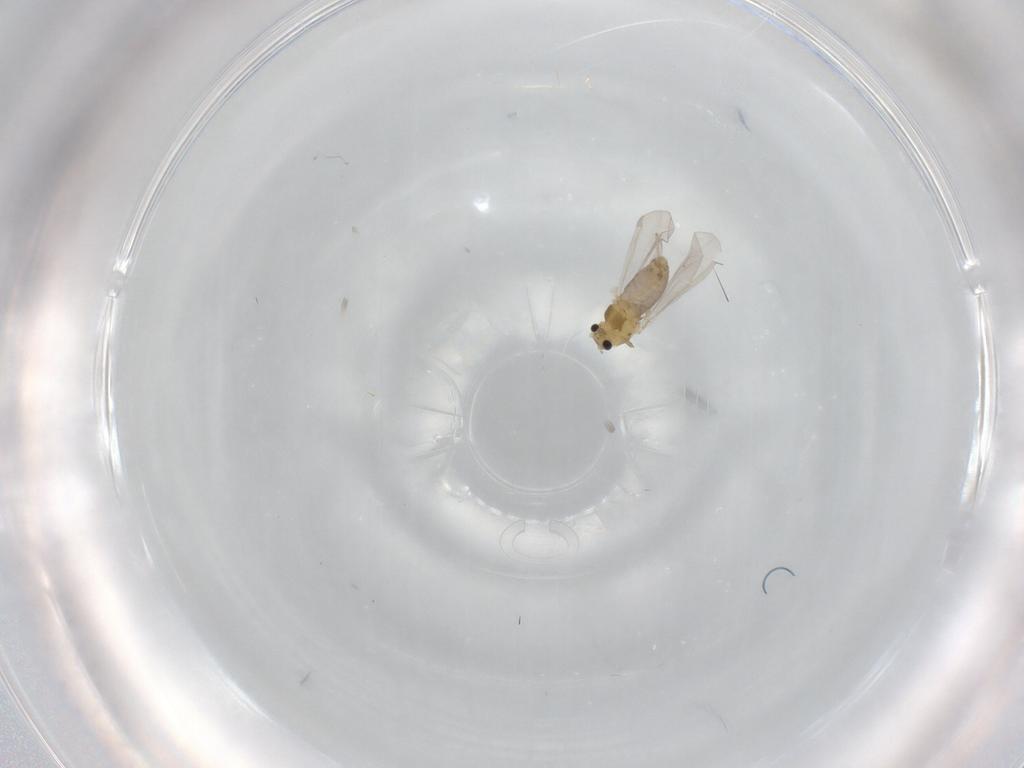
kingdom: Animalia
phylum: Arthropoda
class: Insecta
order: Diptera
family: Chironomidae
